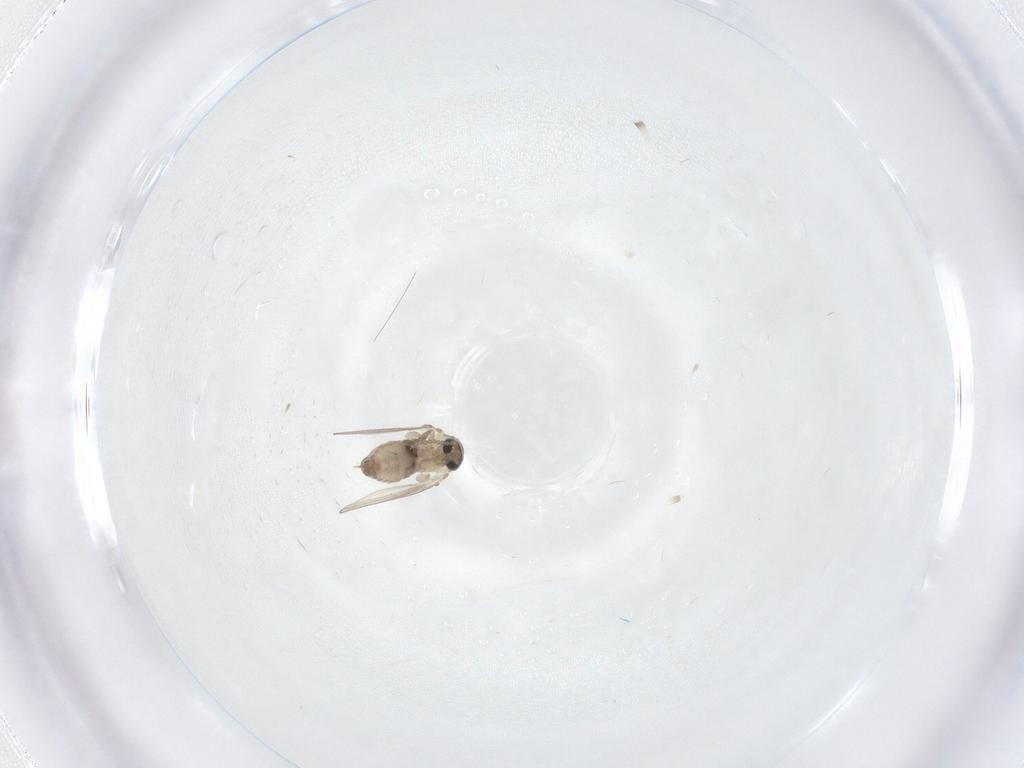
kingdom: Animalia
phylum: Arthropoda
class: Insecta
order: Diptera
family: Psychodidae
